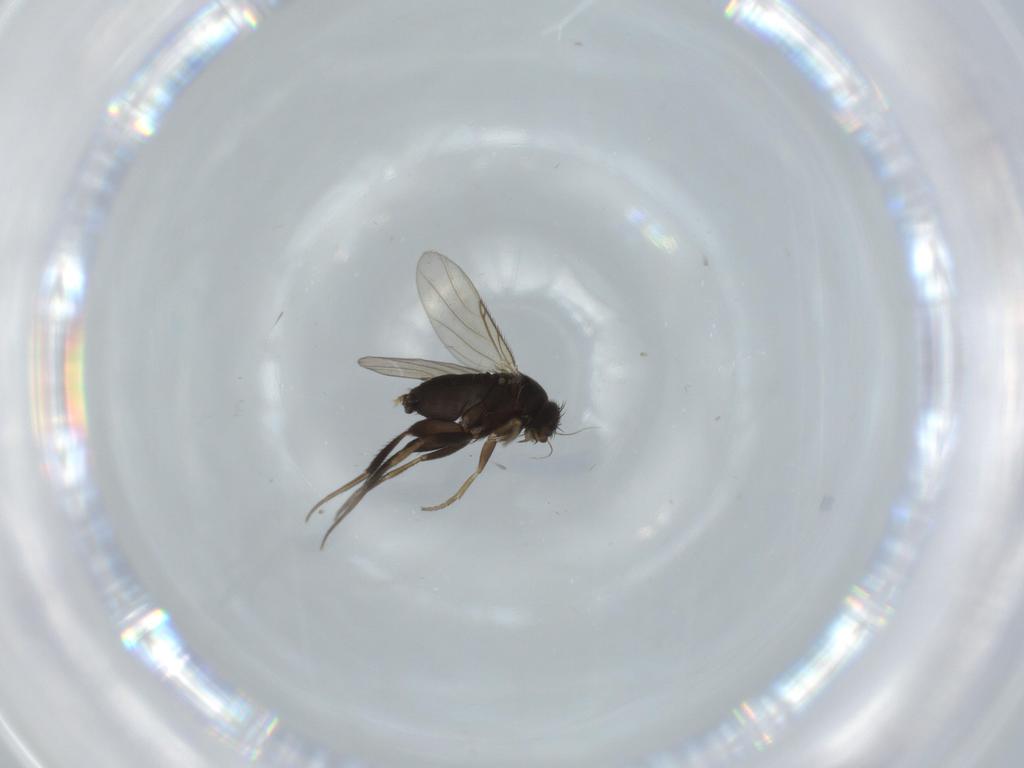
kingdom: Animalia
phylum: Arthropoda
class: Insecta
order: Diptera
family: Phoridae
